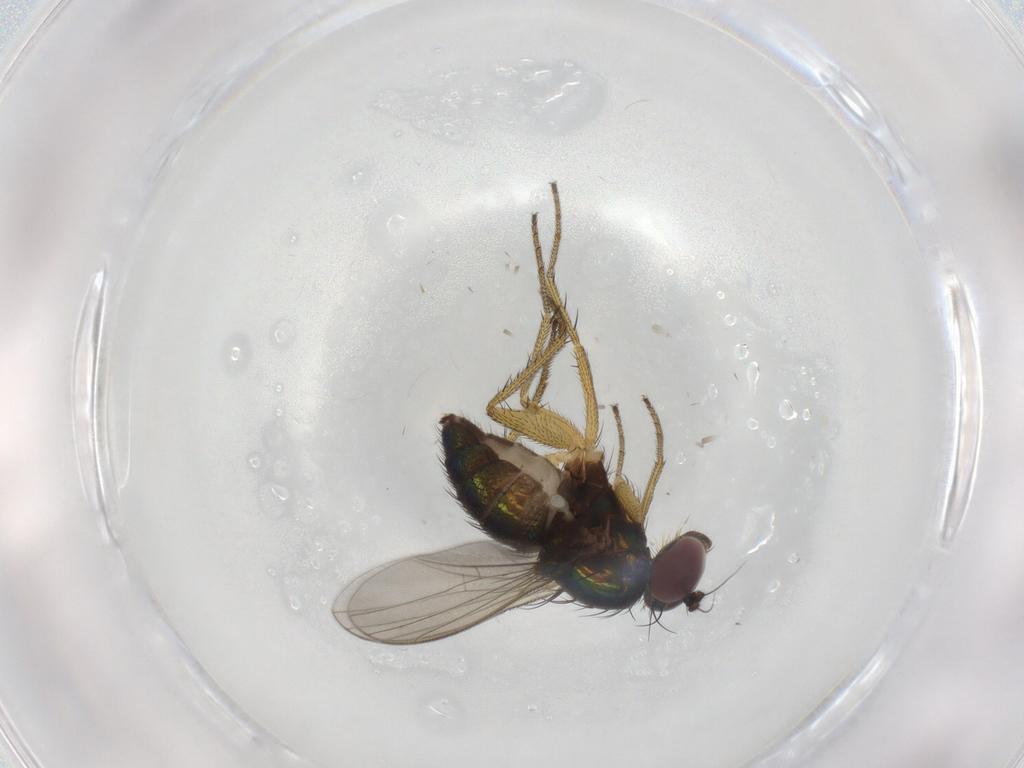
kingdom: Animalia
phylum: Arthropoda
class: Insecta
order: Diptera
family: Dolichopodidae
